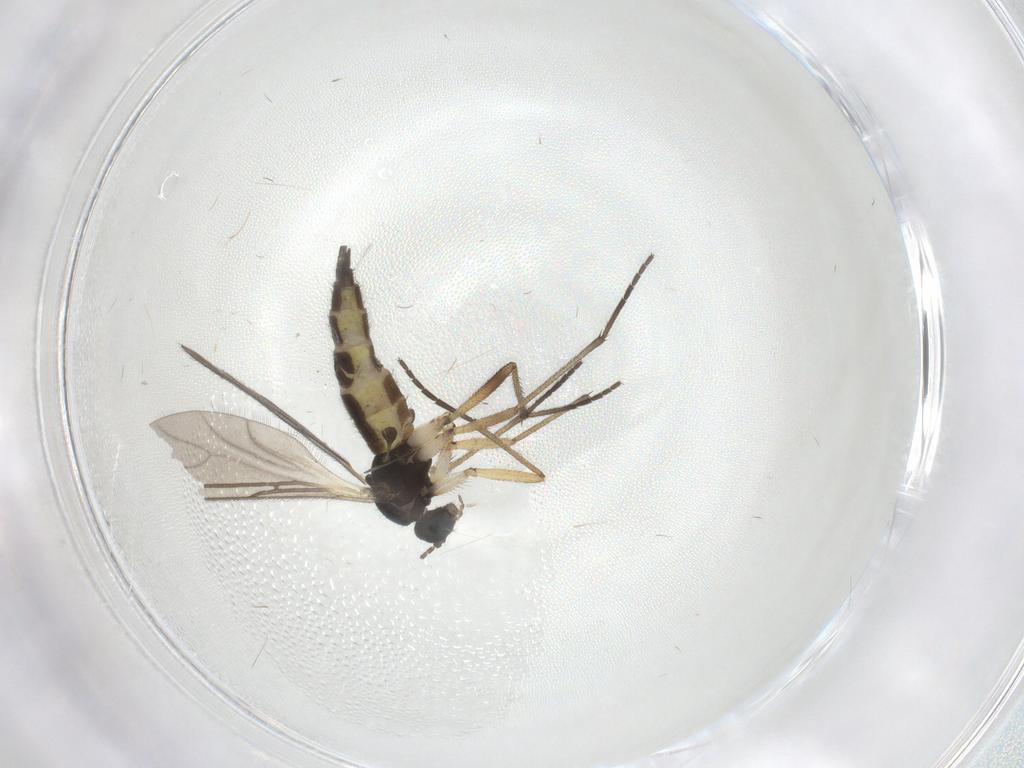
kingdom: Animalia
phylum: Arthropoda
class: Insecta
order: Diptera
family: Sciaridae
